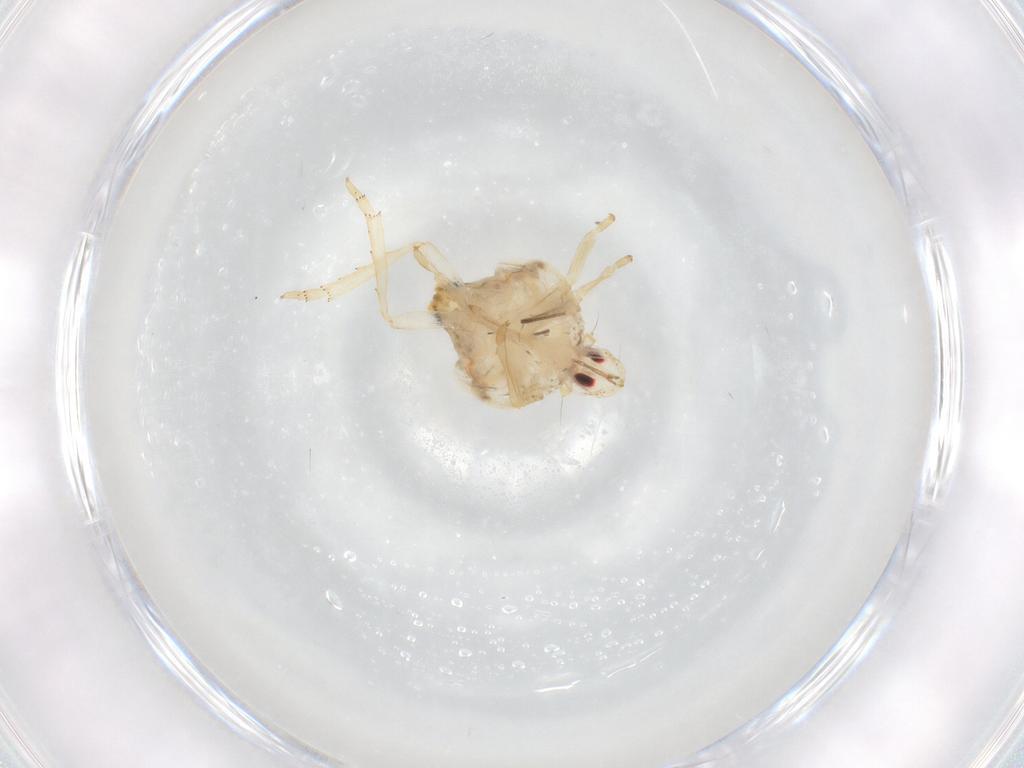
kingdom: Animalia
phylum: Arthropoda
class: Insecta
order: Hemiptera
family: Flatidae
